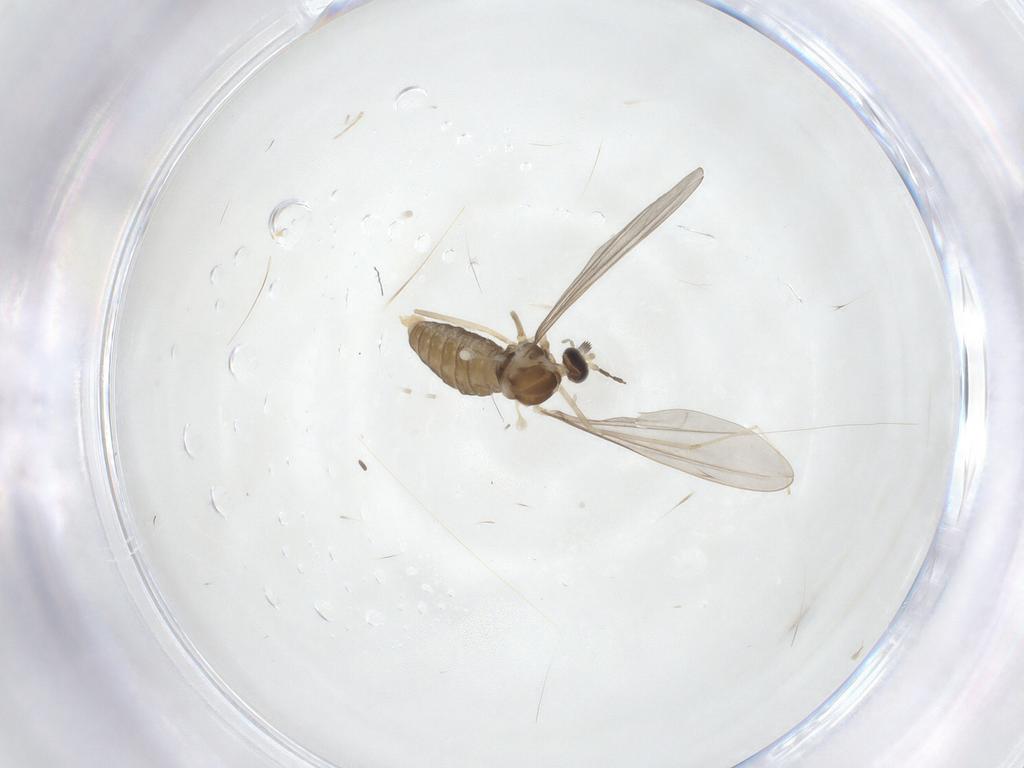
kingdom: Animalia
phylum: Arthropoda
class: Insecta
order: Diptera
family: Cecidomyiidae
